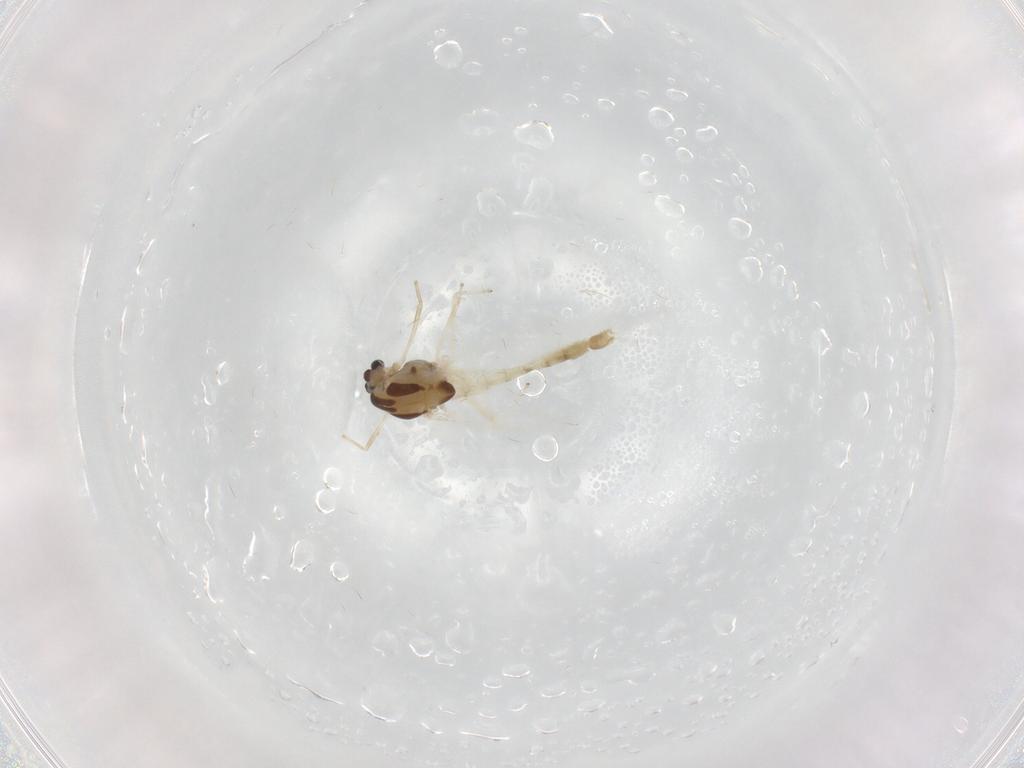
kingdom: Animalia
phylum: Arthropoda
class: Insecta
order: Diptera
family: Chironomidae
